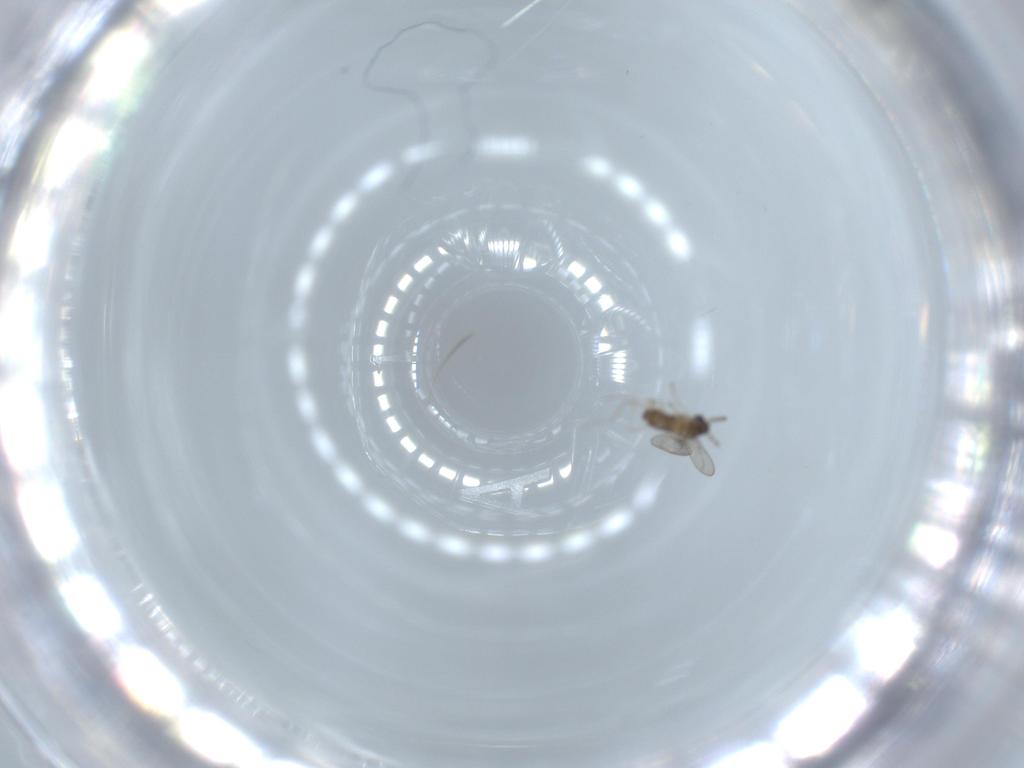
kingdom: Animalia
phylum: Arthropoda
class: Insecta
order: Diptera
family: Cecidomyiidae
